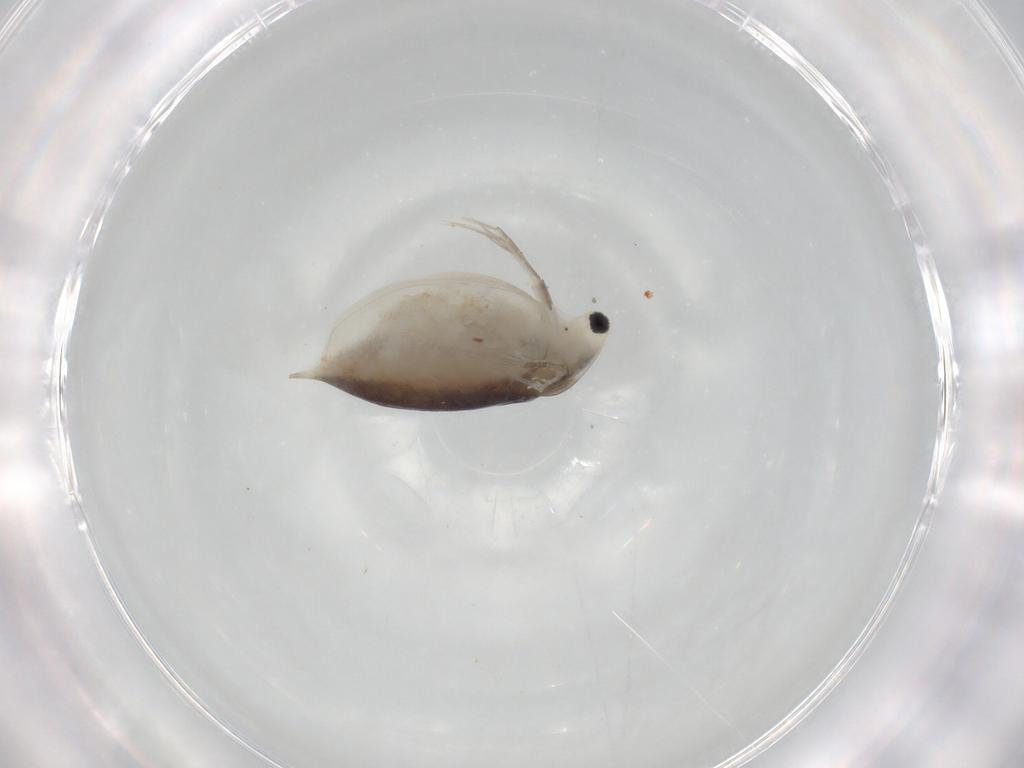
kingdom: Animalia
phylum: Arthropoda
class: Branchiopoda
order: Diplostraca
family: Daphniidae
